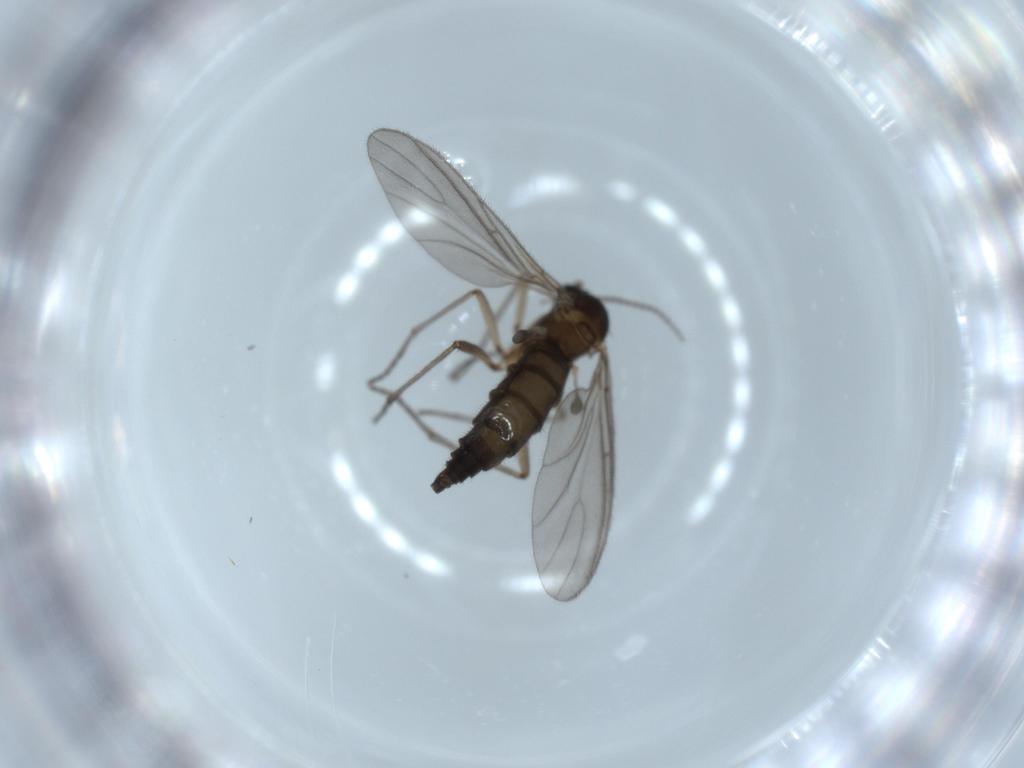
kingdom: Animalia
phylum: Arthropoda
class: Insecta
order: Diptera
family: Sciaridae
